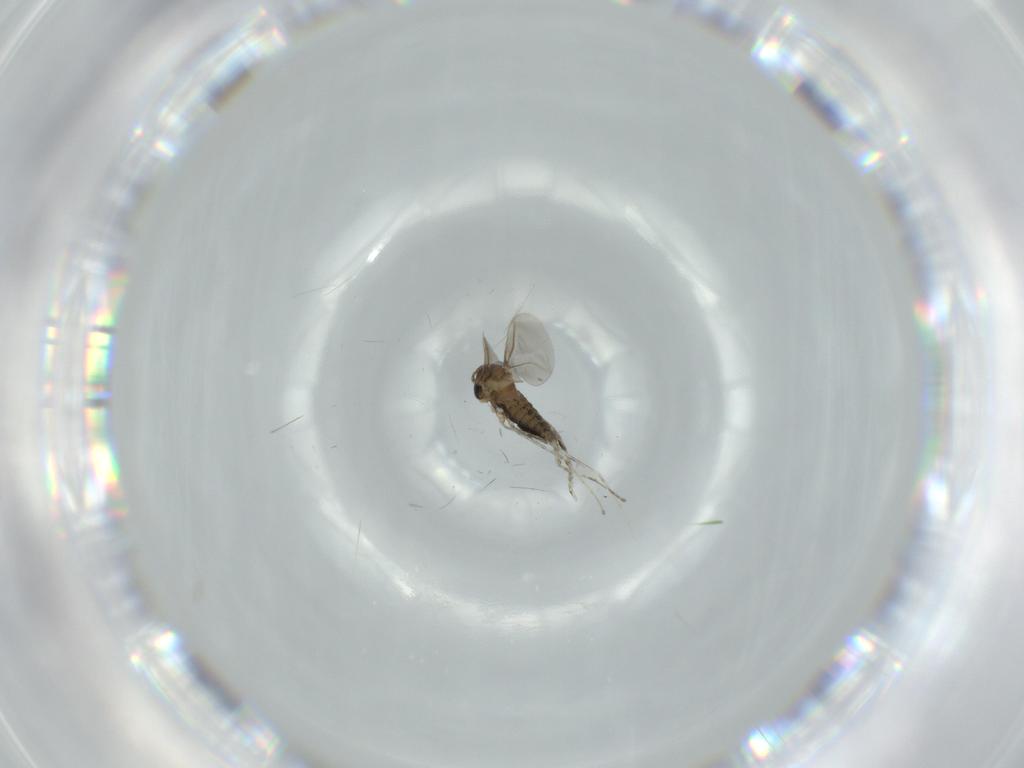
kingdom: Animalia
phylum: Arthropoda
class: Insecta
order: Diptera
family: Cecidomyiidae
